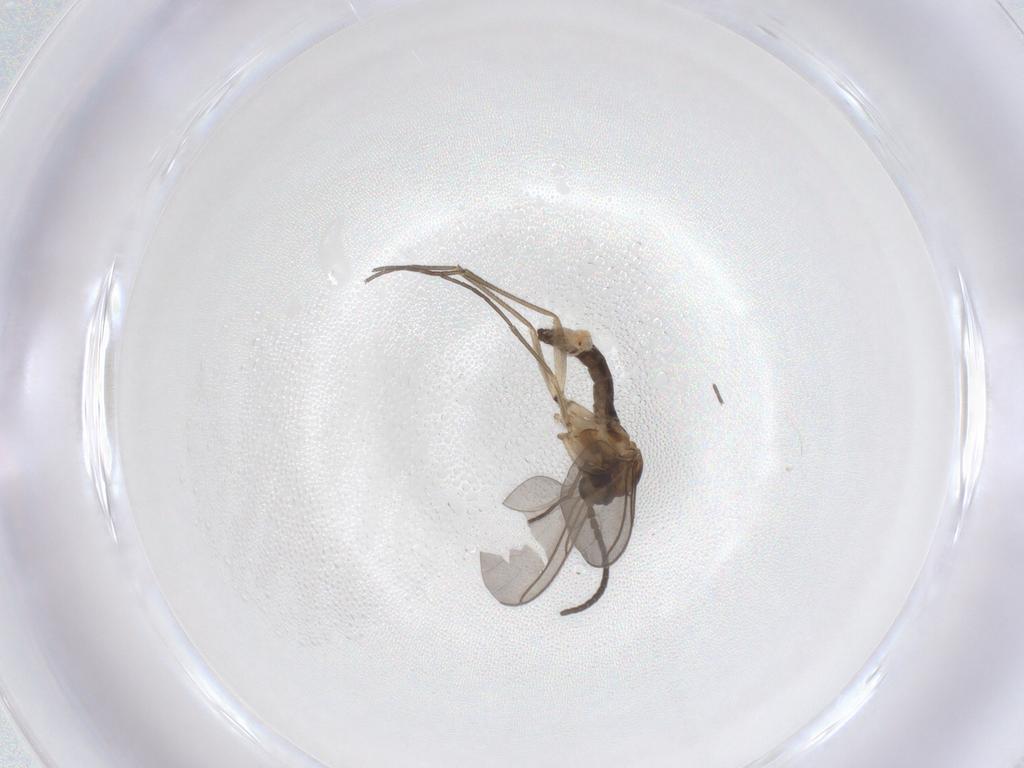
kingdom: Animalia
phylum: Arthropoda
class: Insecta
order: Diptera
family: Sciaridae
